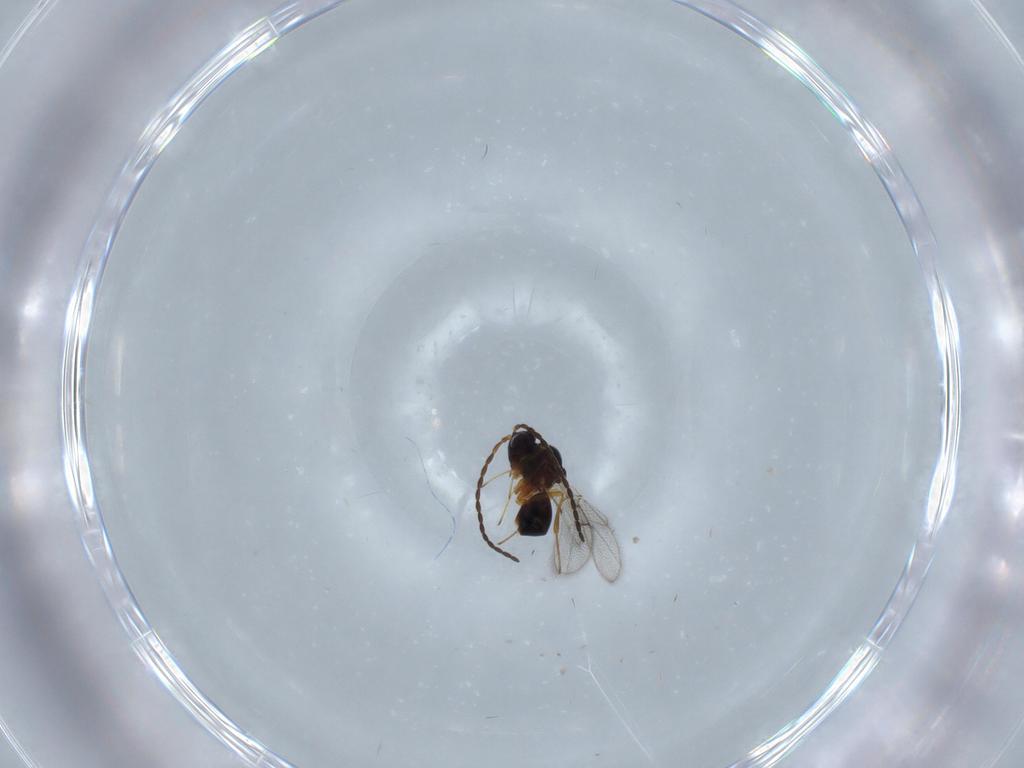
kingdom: Animalia
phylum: Arthropoda
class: Insecta
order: Hymenoptera
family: Figitidae
